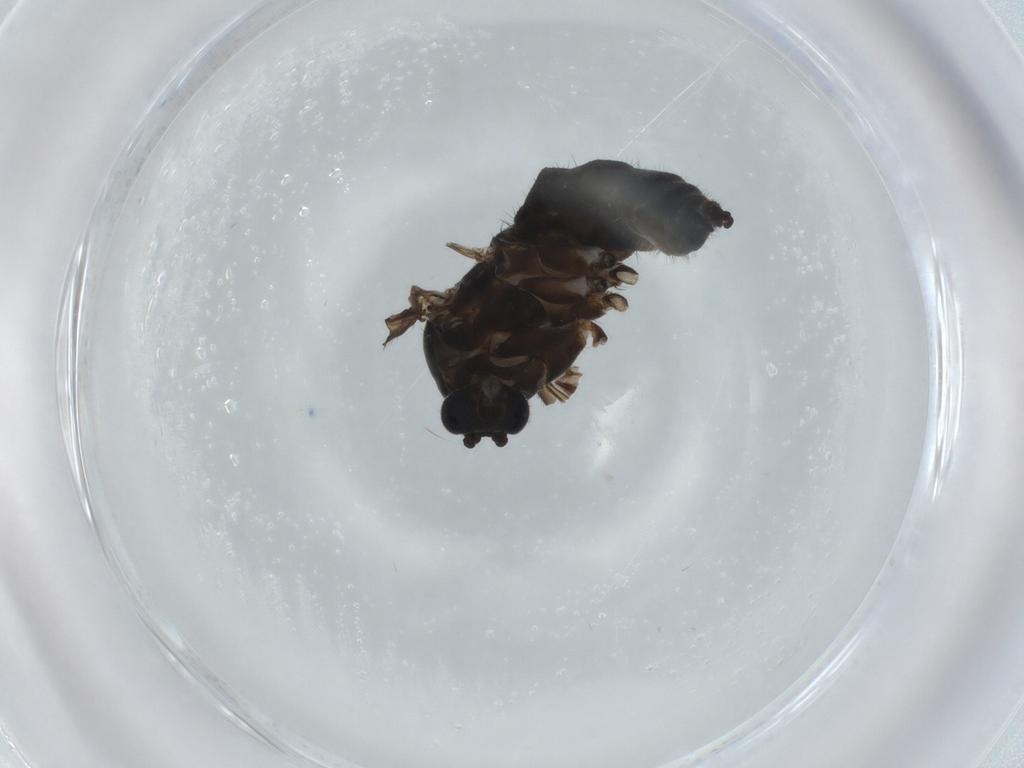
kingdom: Animalia
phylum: Arthropoda
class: Insecta
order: Diptera
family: Sciaridae
